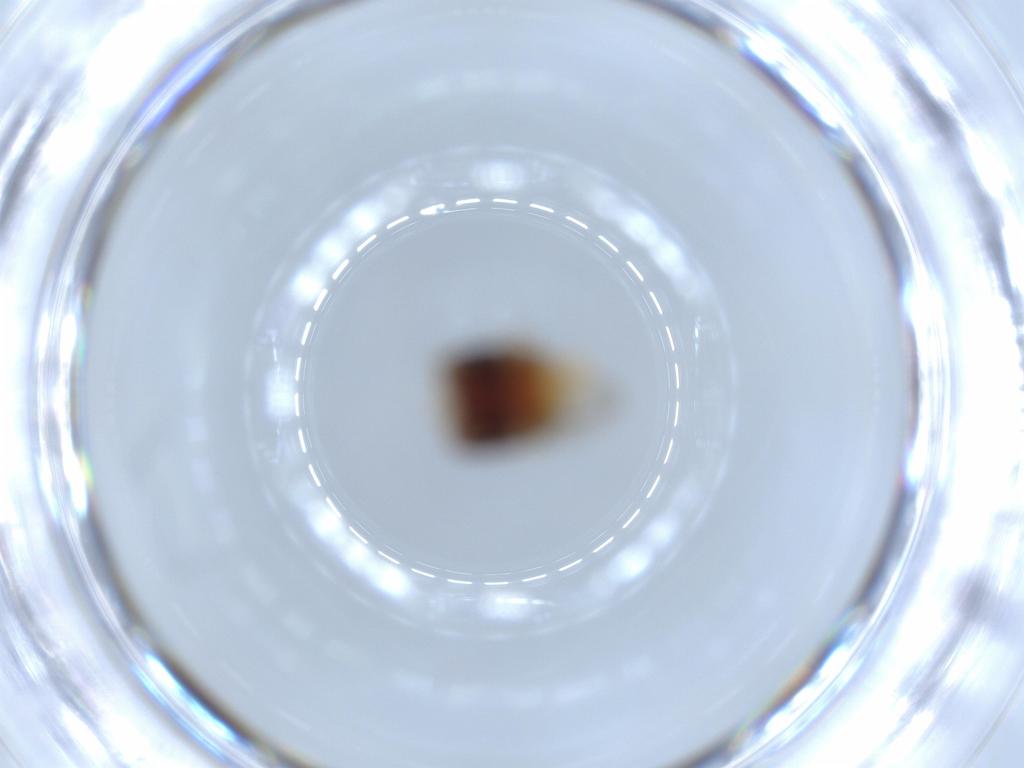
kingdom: Animalia
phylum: Arthropoda
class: Insecta
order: Coleoptera
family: Coccinellidae
